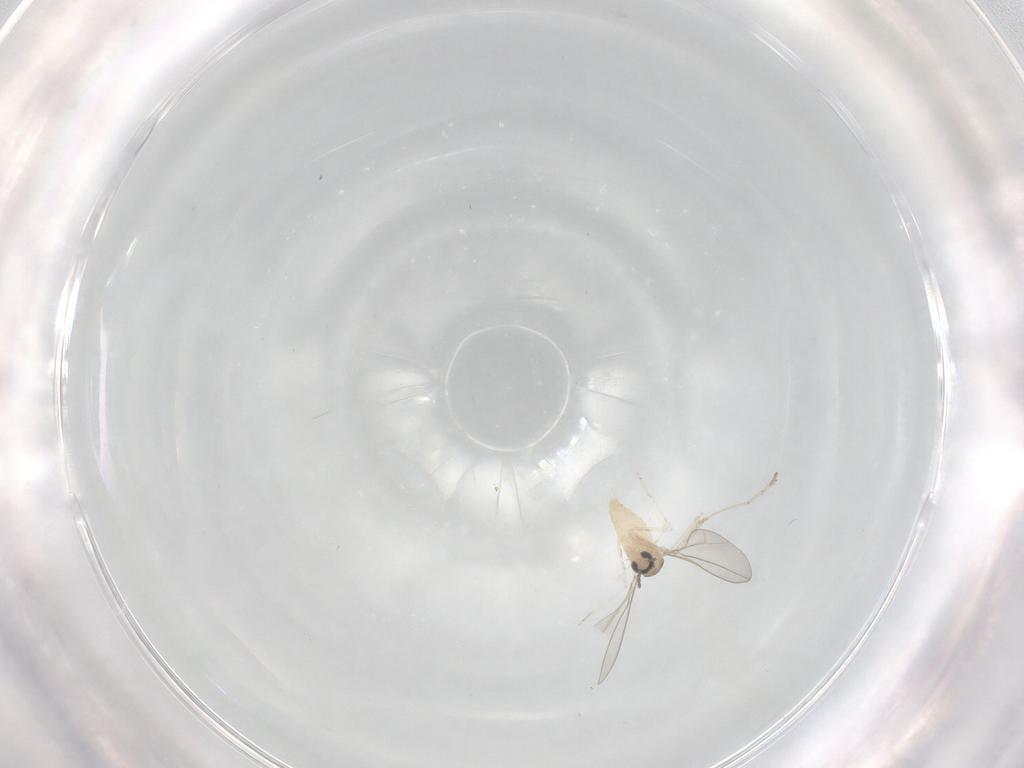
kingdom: Animalia
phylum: Arthropoda
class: Insecta
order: Diptera
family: Cecidomyiidae
